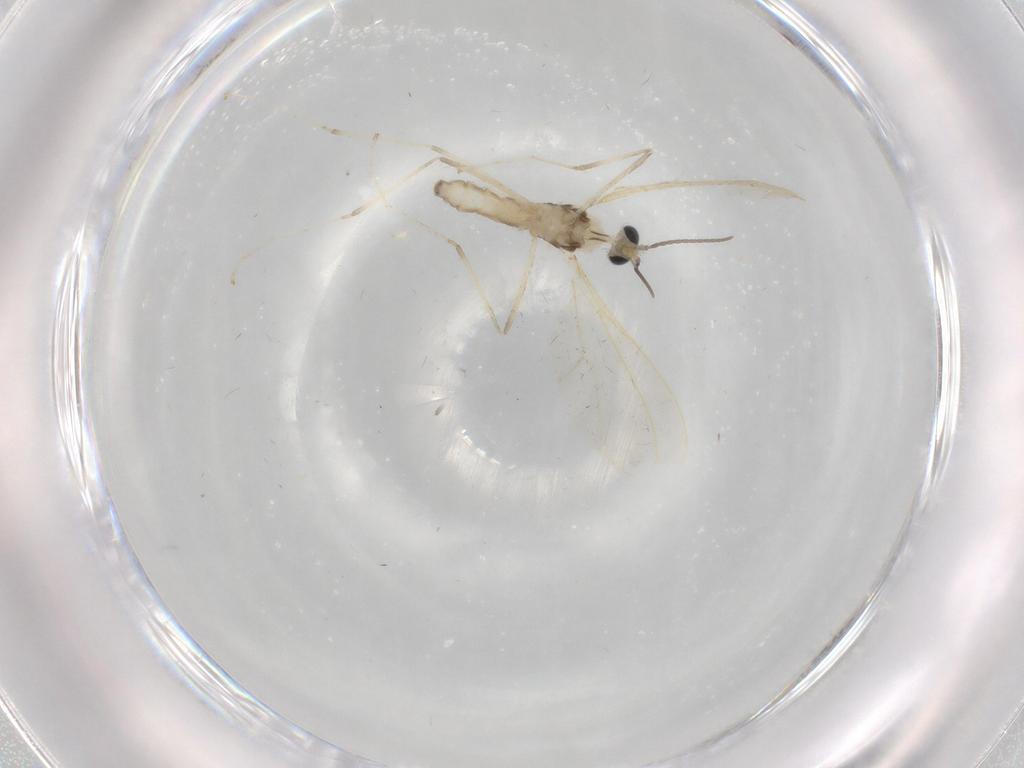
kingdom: Animalia
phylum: Arthropoda
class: Insecta
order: Diptera
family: Cecidomyiidae
